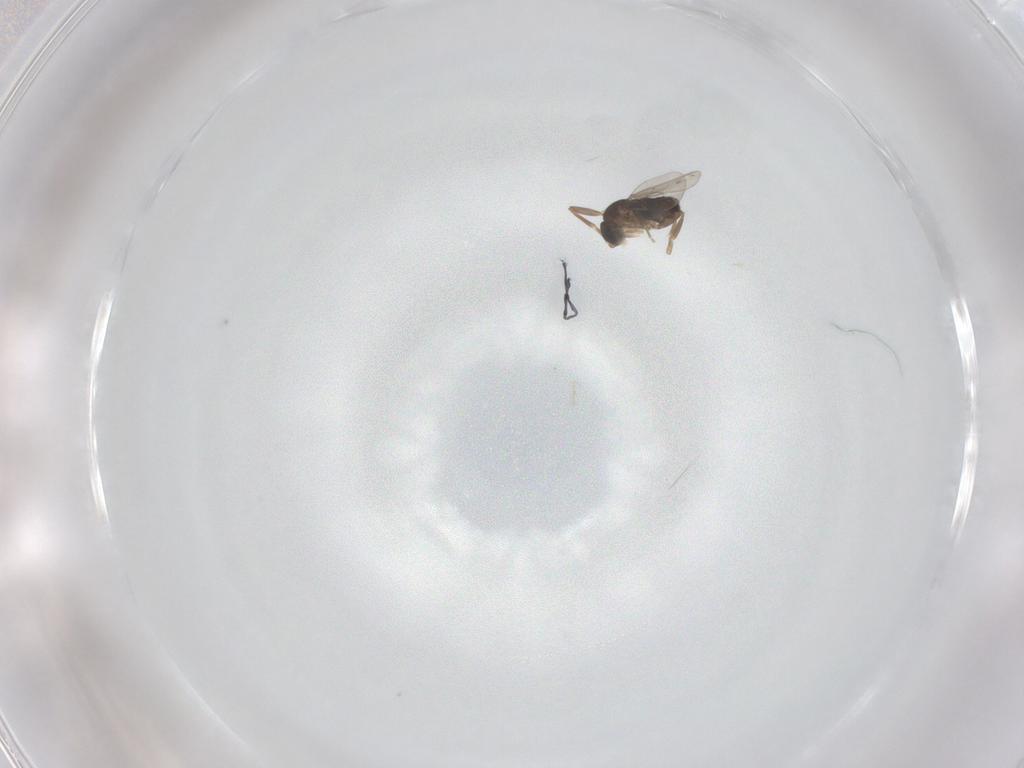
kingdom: Animalia
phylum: Arthropoda
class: Insecta
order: Diptera
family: Phoridae
